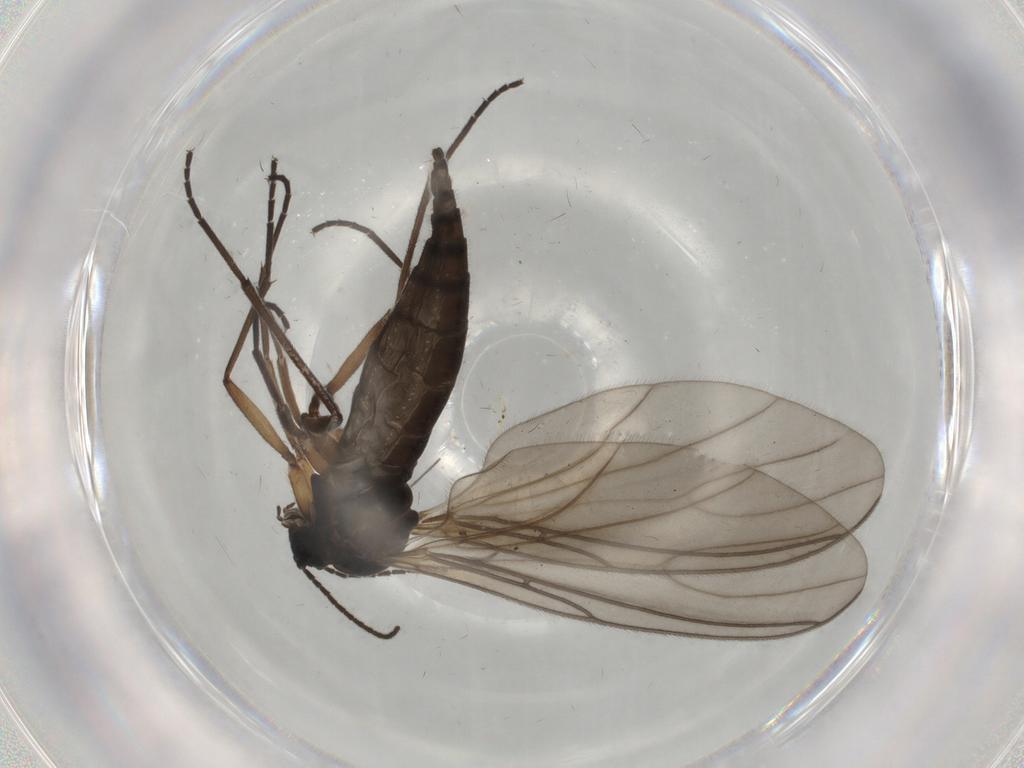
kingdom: Animalia
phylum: Arthropoda
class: Insecta
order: Diptera
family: Sciaridae
